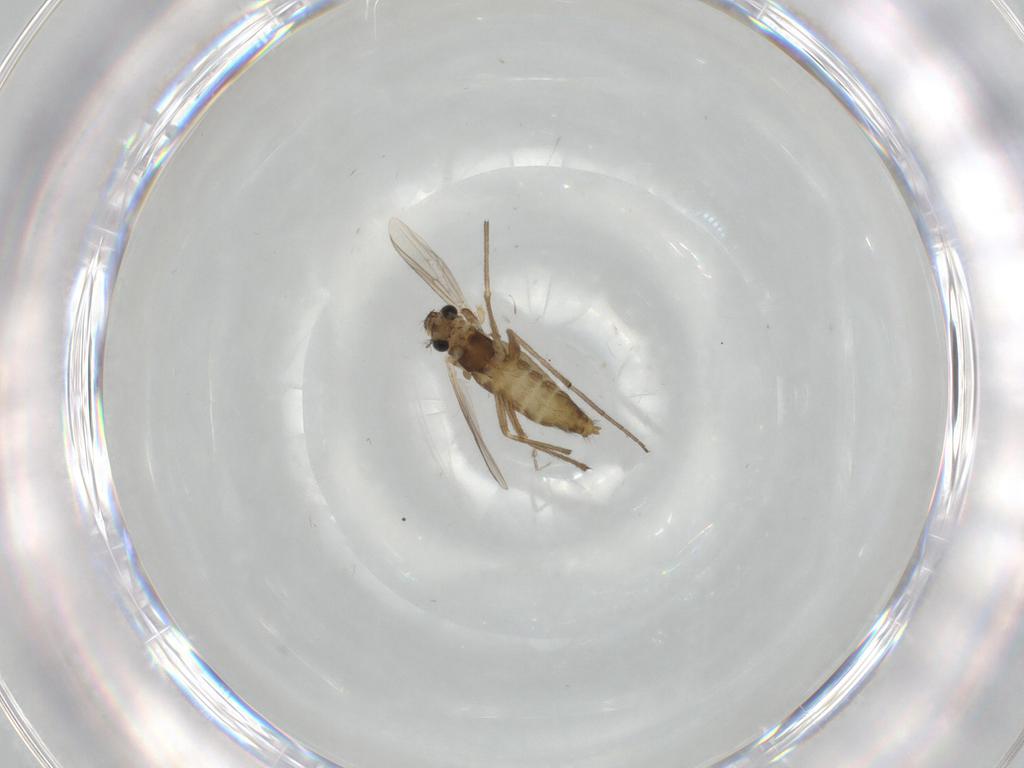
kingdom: Animalia
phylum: Arthropoda
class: Insecta
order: Diptera
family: Chironomidae
